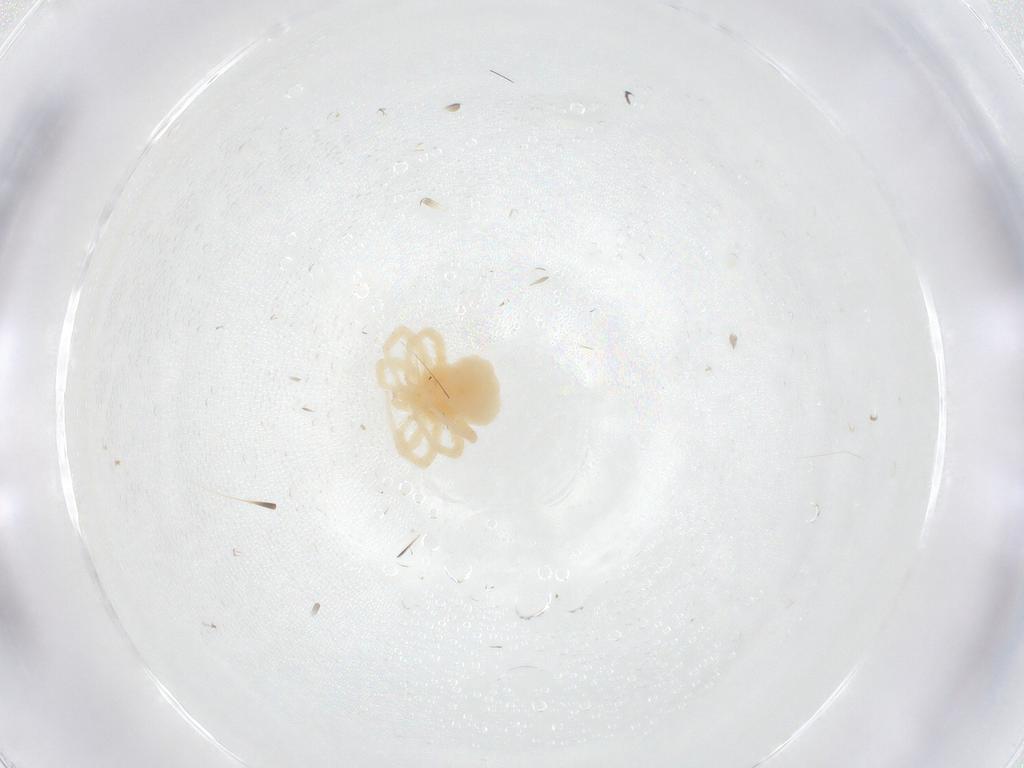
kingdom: Animalia
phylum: Arthropoda
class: Arachnida
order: Trombidiformes
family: Anystidae
